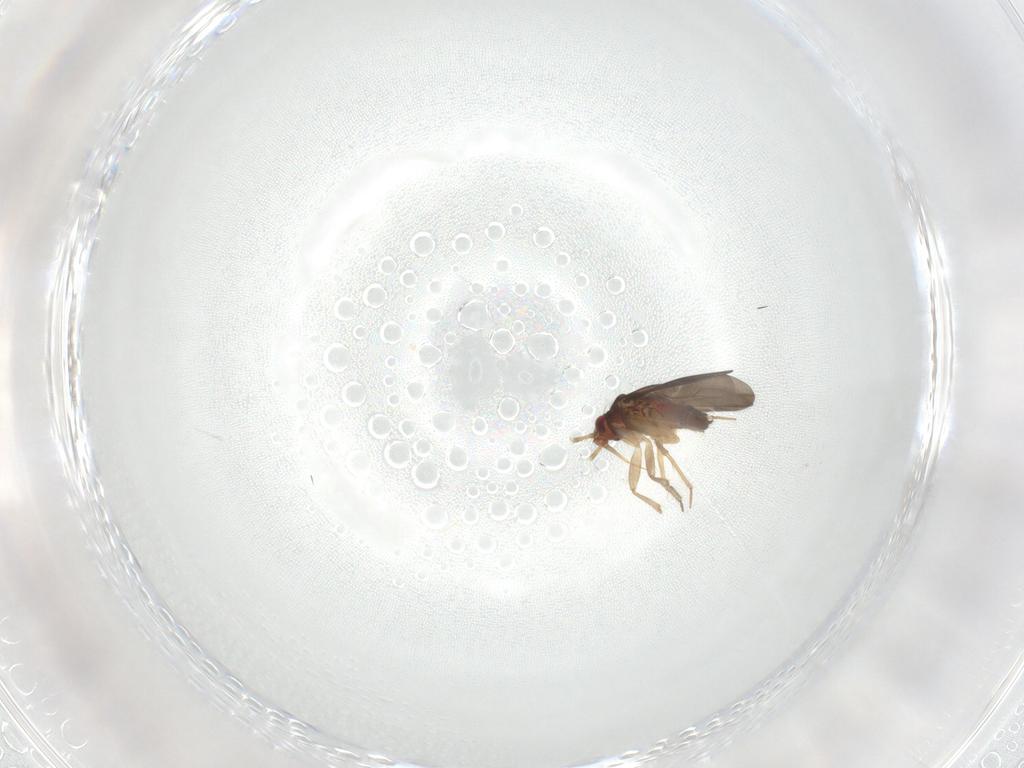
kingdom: Animalia
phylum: Arthropoda
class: Insecta
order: Hemiptera
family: Ceratocombidae
